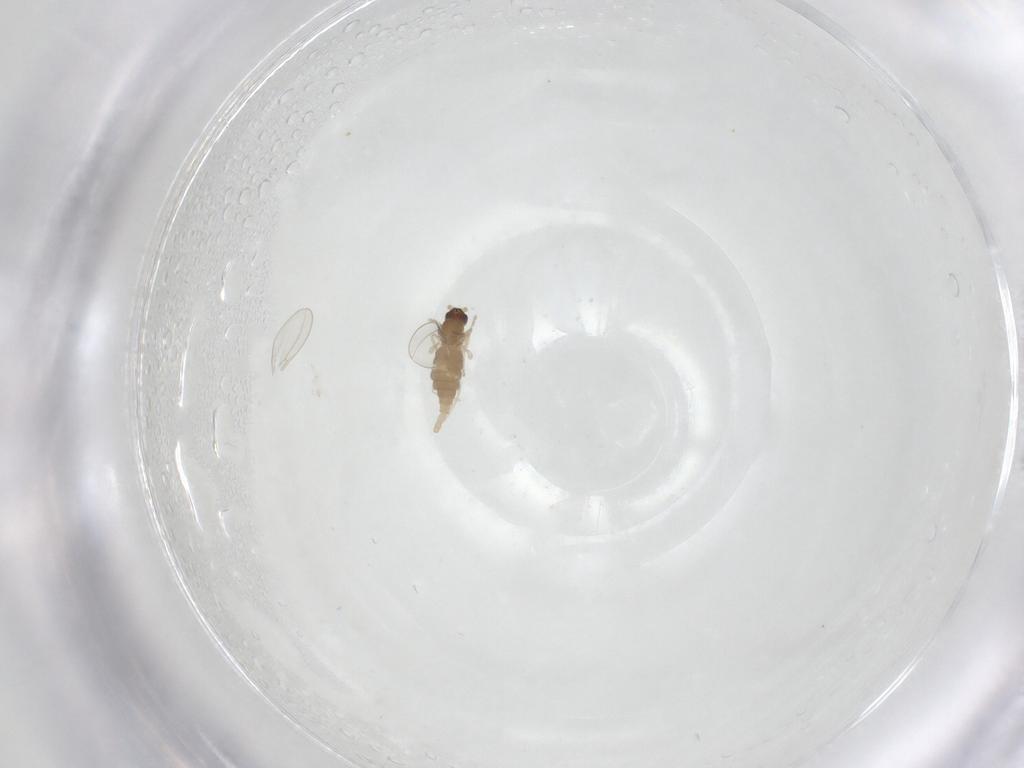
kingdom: Animalia
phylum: Arthropoda
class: Insecta
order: Diptera
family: Cecidomyiidae
